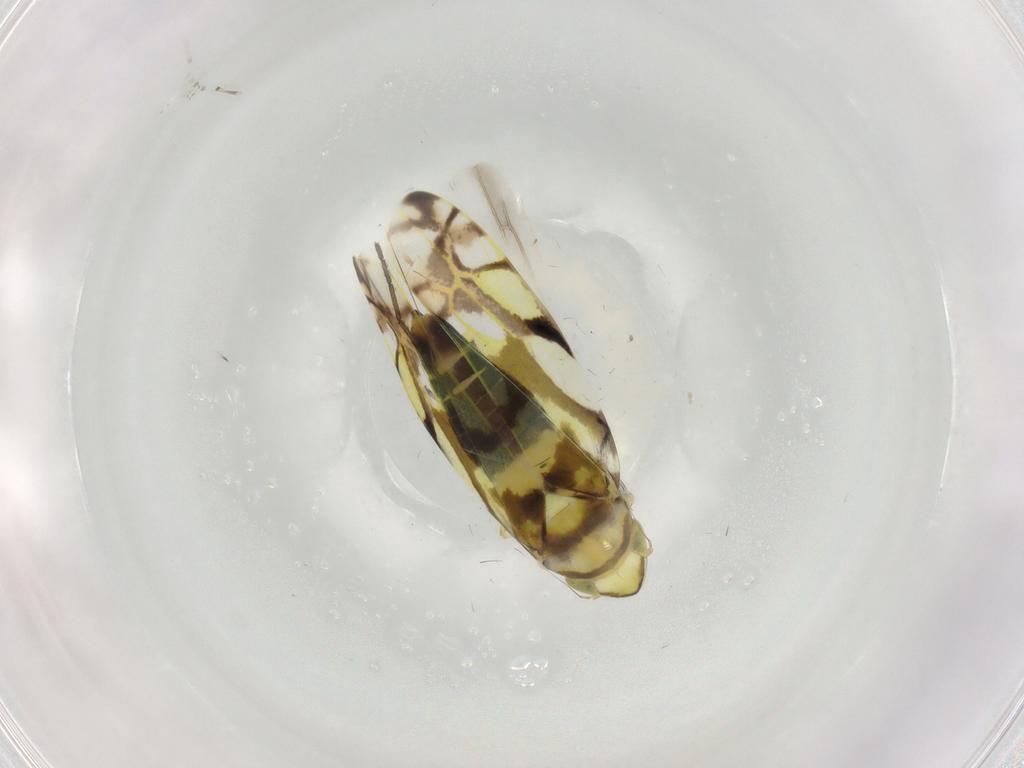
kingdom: Animalia
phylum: Arthropoda
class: Insecta
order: Hemiptera
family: Cicadellidae
